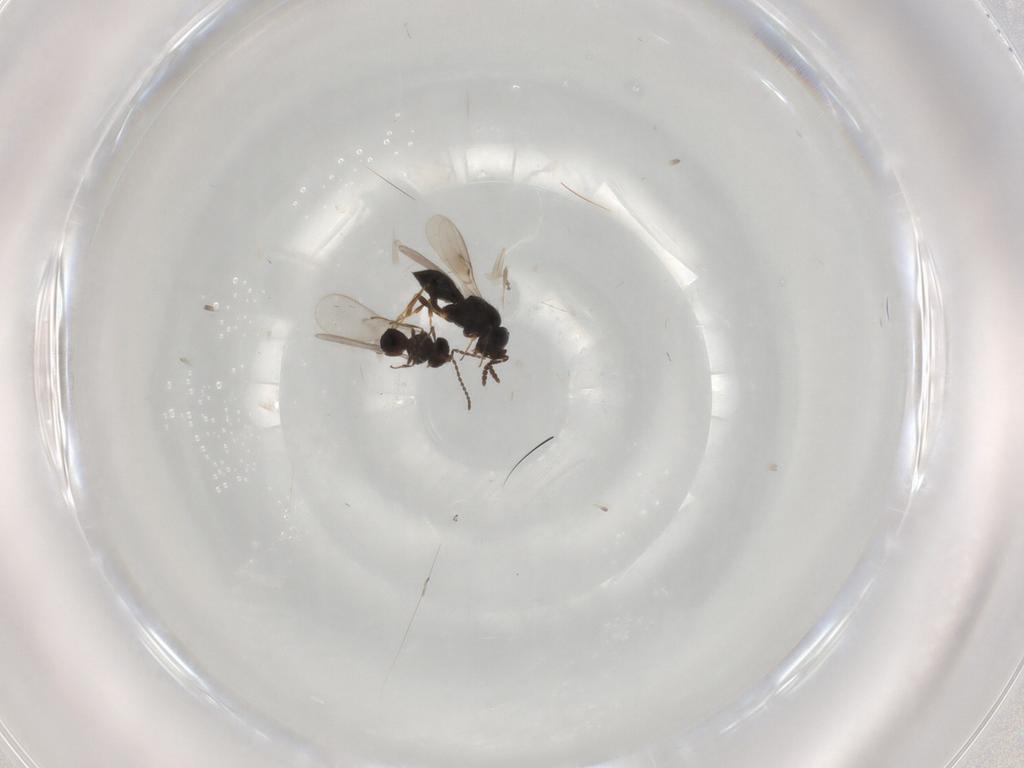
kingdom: Animalia
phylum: Arthropoda
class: Insecta
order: Hymenoptera
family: Scelionidae
